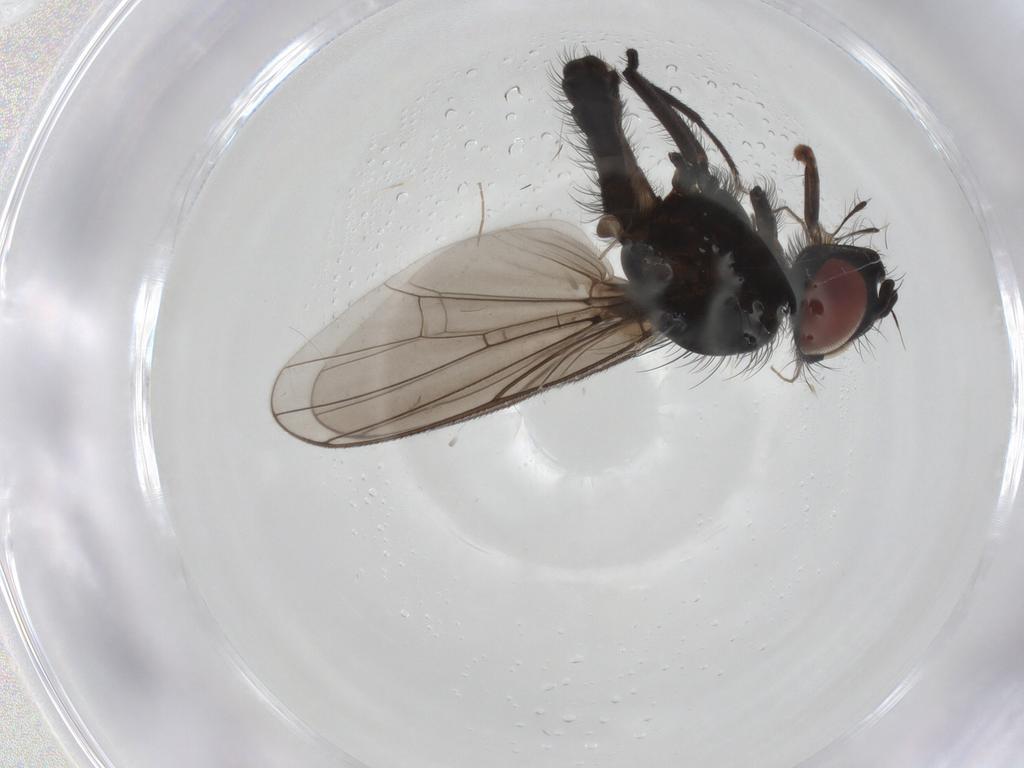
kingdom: Animalia
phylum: Arthropoda
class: Insecta
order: Diptera
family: Anthomyiidae
